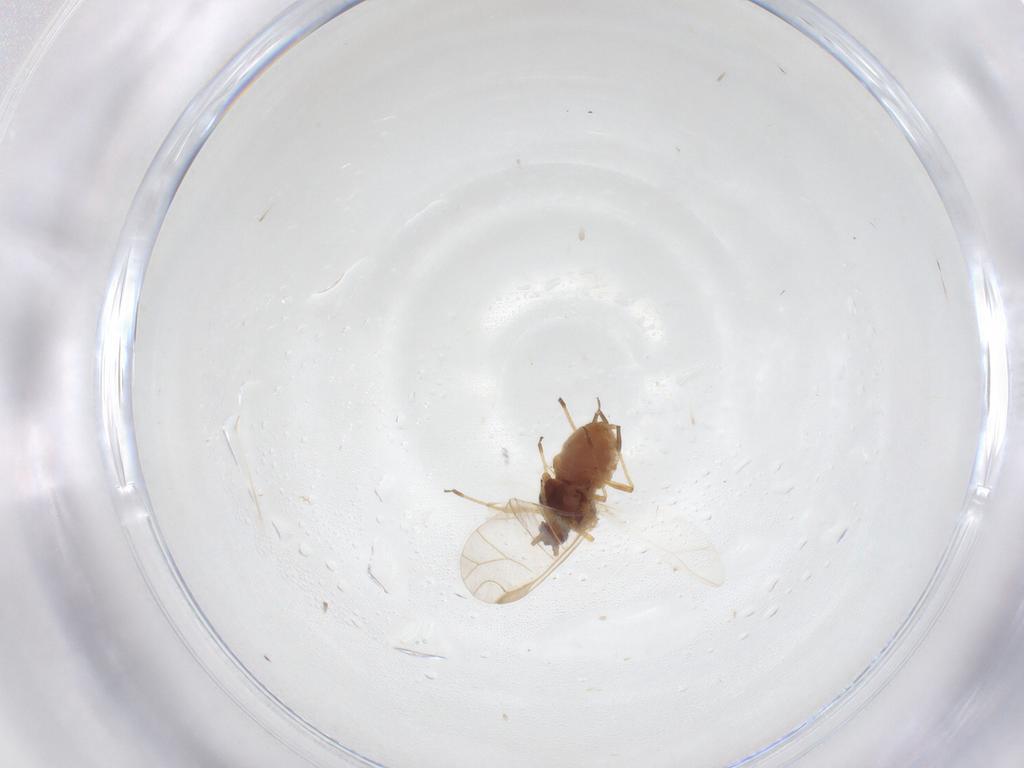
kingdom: Animalia
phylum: Arthropoda
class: Insecta
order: Hemiptera
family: Aphididae
